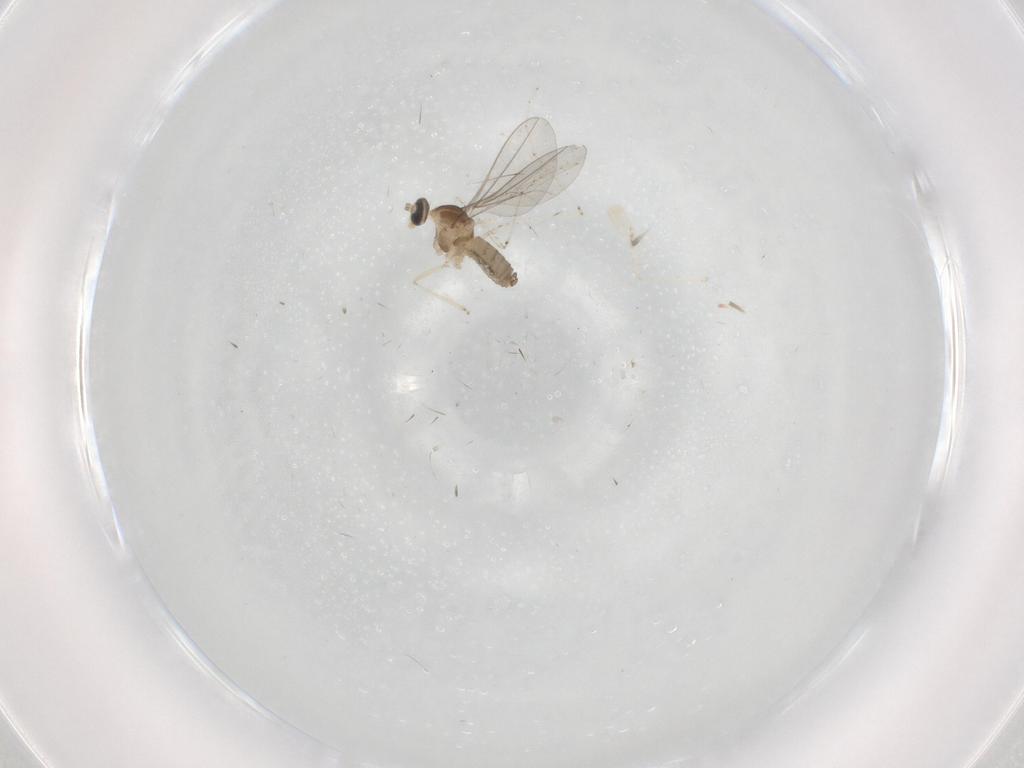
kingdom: Animalia
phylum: Arthropoda
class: Insecta
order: Diptera
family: Cecidomyiidae
